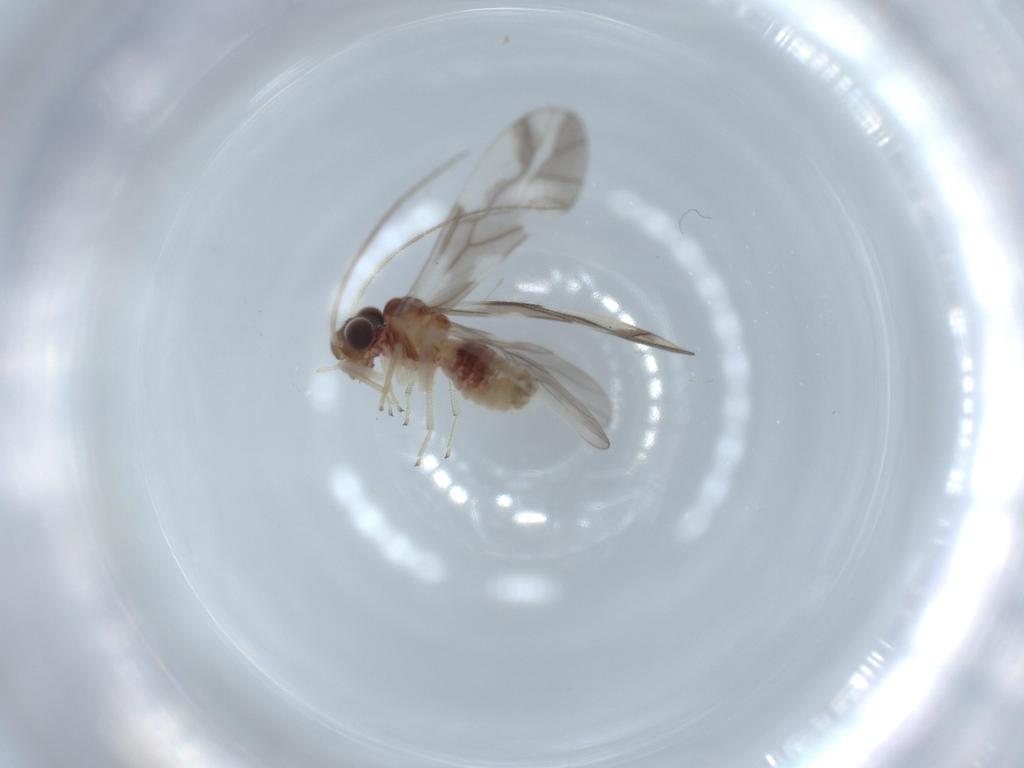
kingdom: Animalia
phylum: Arthropoda
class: Insecta
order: Psocodea
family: Caeciliusidae
